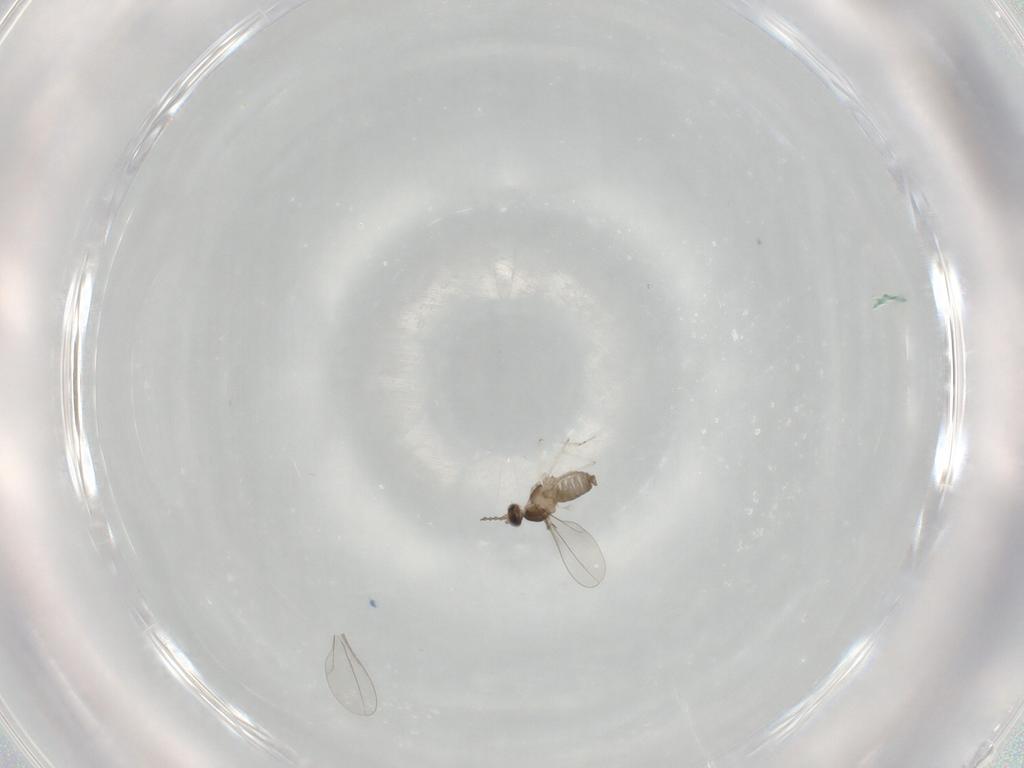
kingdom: Animalia
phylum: Arthropoda
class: Insecta
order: Diptera
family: Cecidomyiidae
